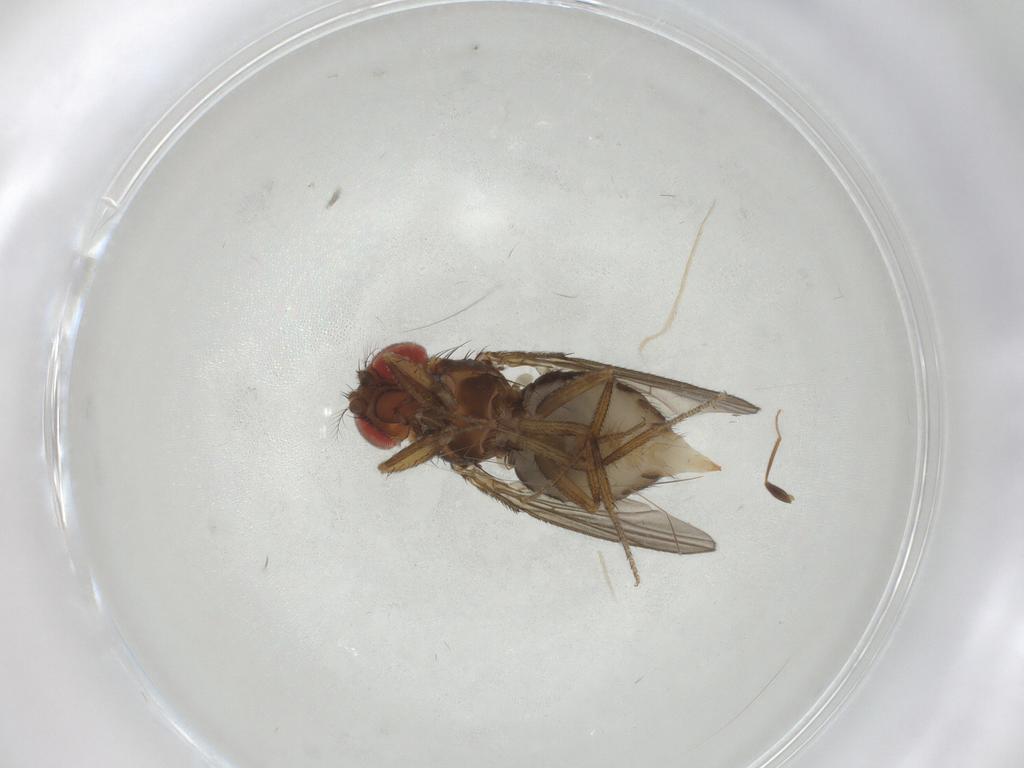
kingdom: Animalia
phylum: Arthropoda
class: Insecta
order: Diptera
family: Drosophilidae
